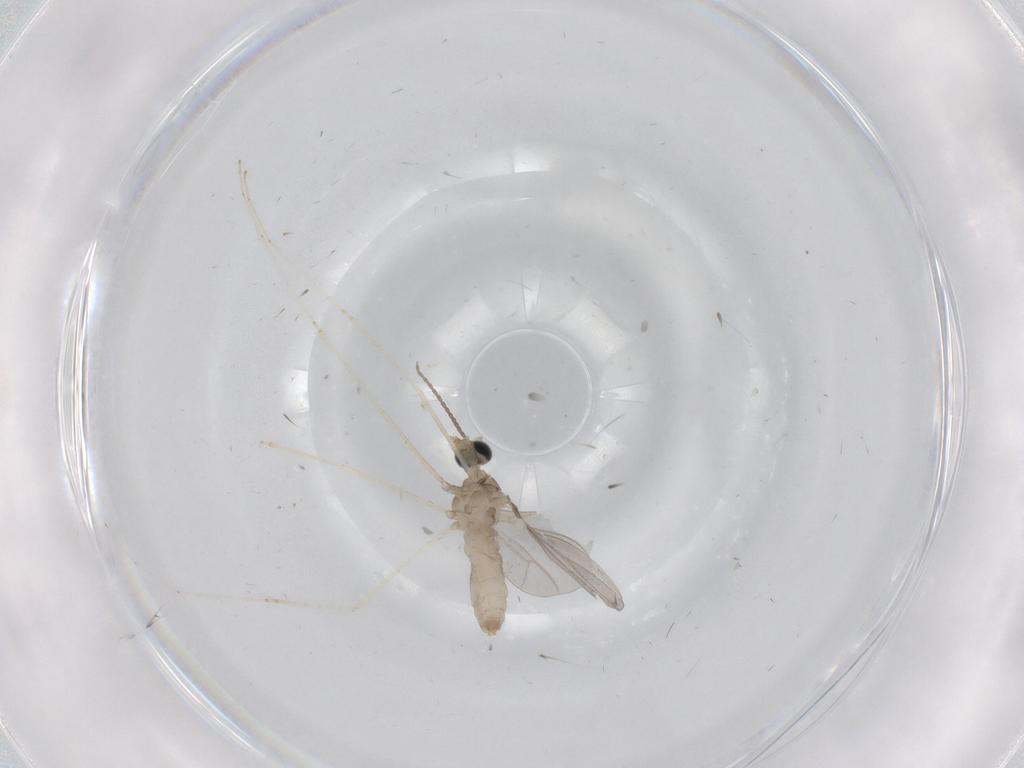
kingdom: Animalia
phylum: Arthropoda
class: Insecta
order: Diptera
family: Cecidomyiidae
